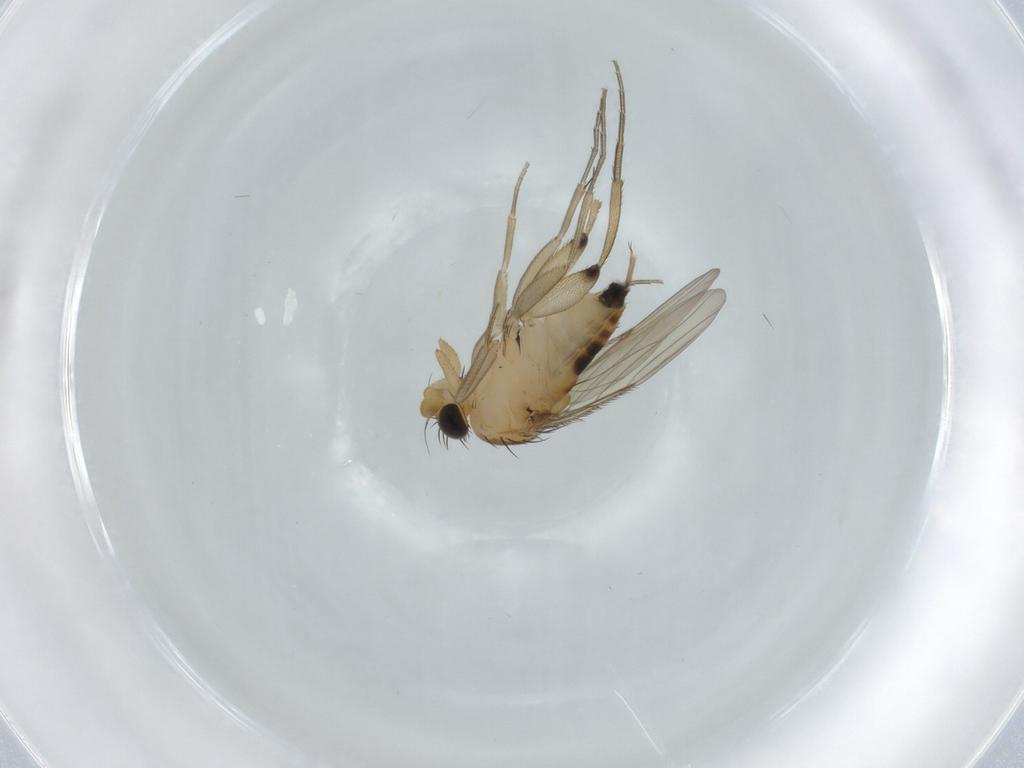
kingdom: Animalia
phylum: Arthropoda
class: Insecta
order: Diptera
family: Phoridae
